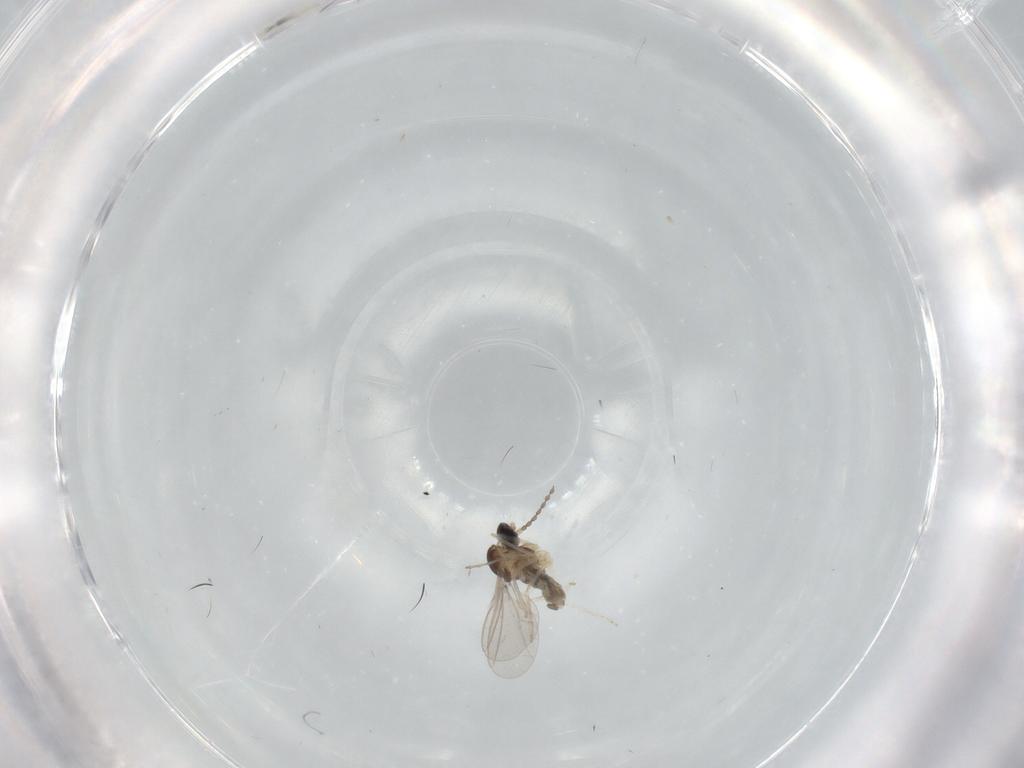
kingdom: Animalia
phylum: Arthropoda
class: Insecta
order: Diptera
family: Cecidomyiidae
